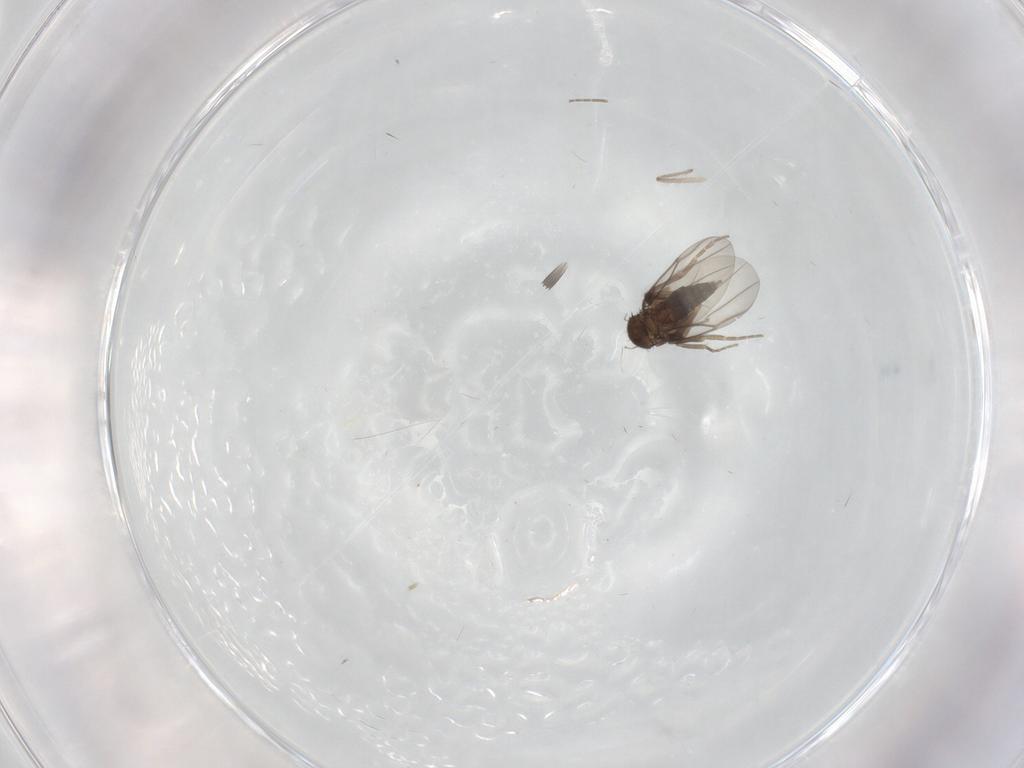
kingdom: Animalia
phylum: Arthropoda
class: Insecta
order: Diptera
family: Chironomidae
